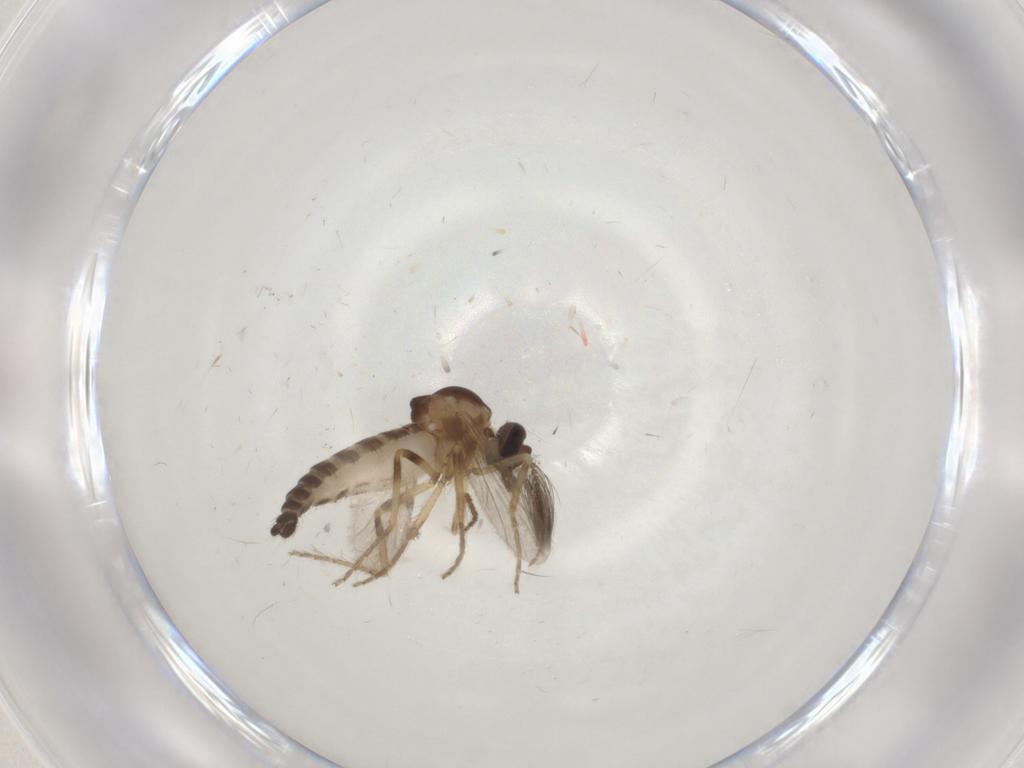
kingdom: Animalia
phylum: Arthropoda
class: Insecta
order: Diptera
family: Ceratopogonidae
